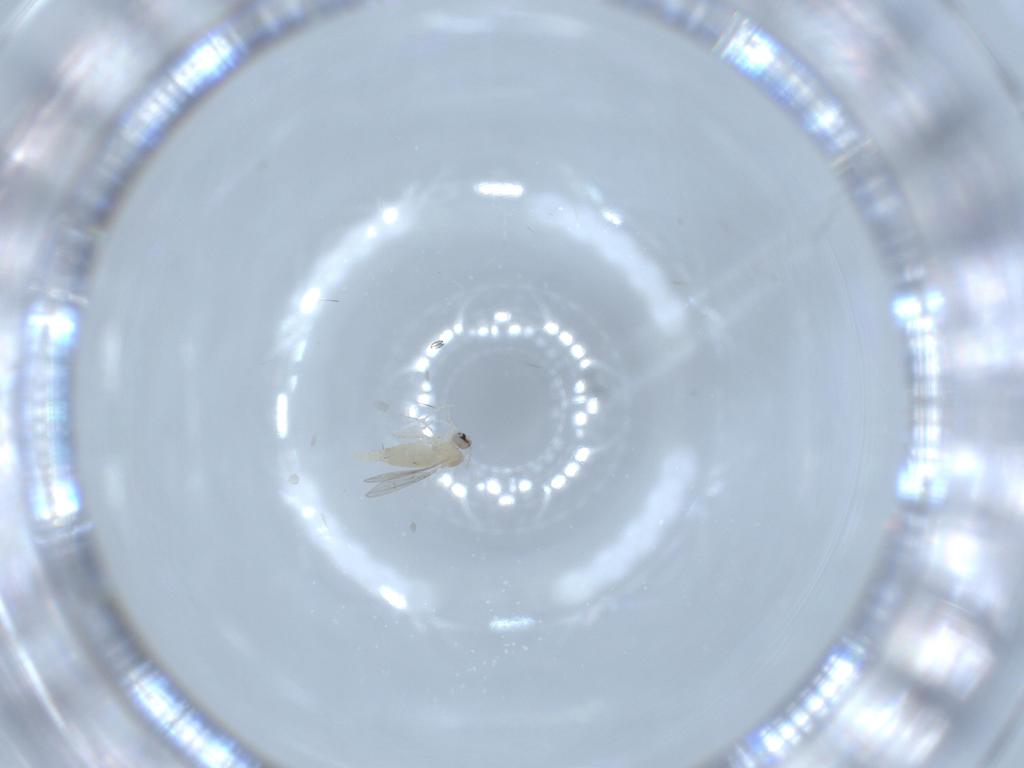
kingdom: Animalia
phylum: Arthropoda
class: Insecta
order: Diptera
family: Cecidomyiidae
